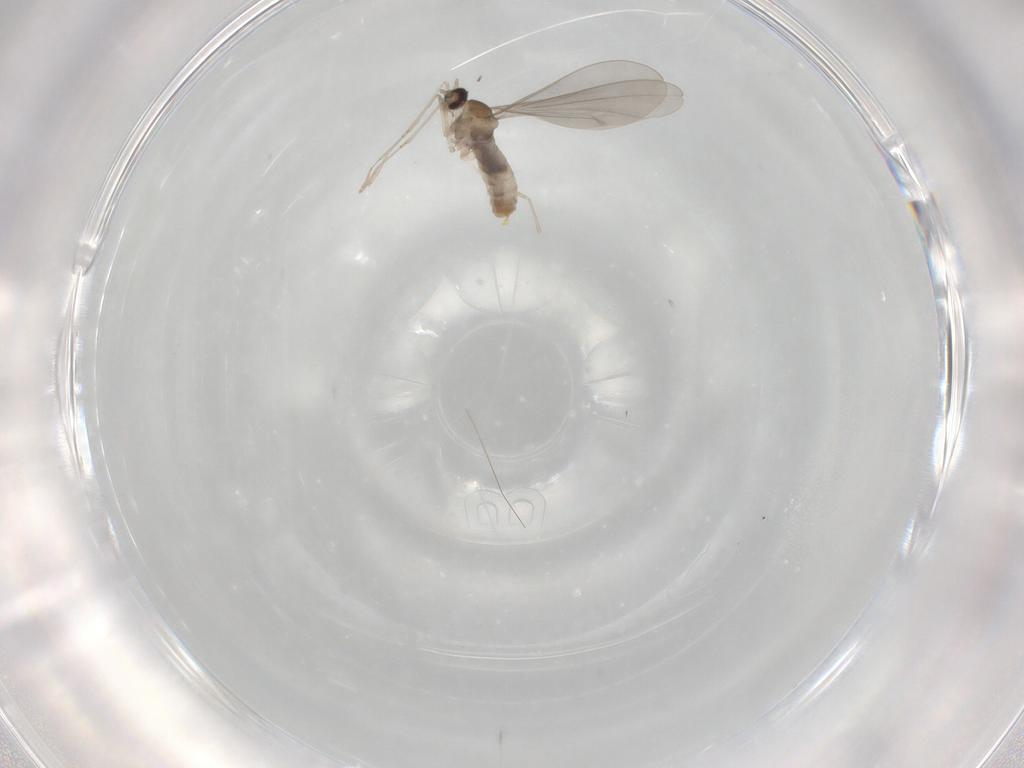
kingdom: Animalia
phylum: Arthropoda
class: Insecta
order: Diptera
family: Cecidomyiidae
